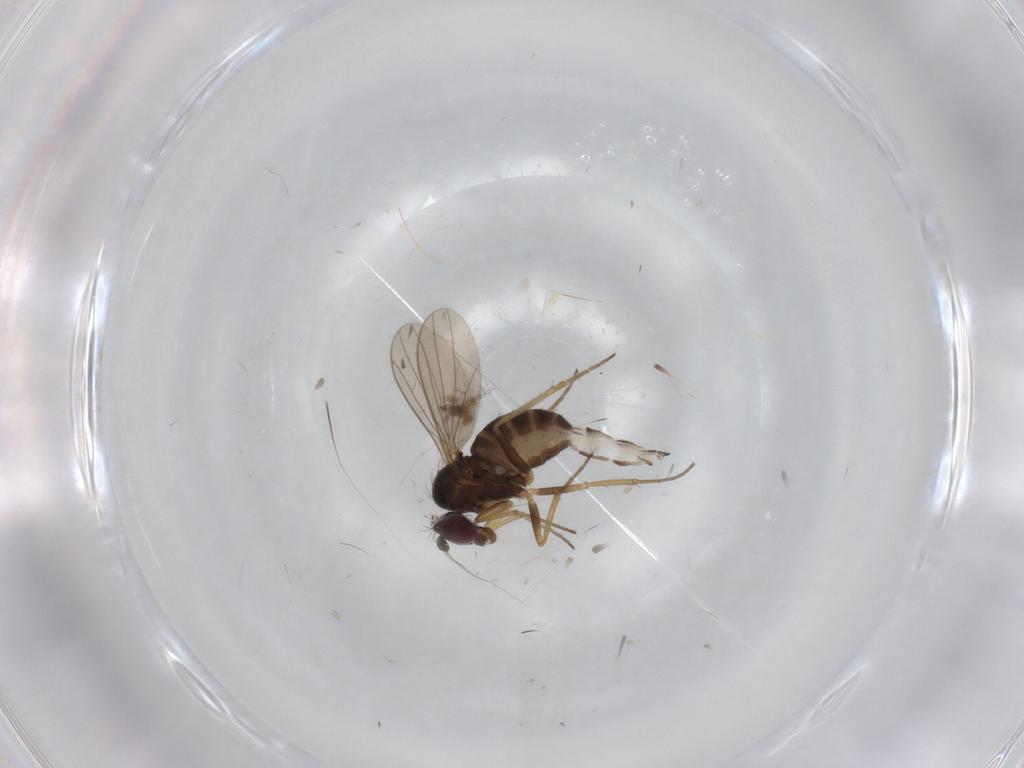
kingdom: Animalia
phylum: Arthropoda
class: Insecta
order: Diptera
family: Dolichopodidae
